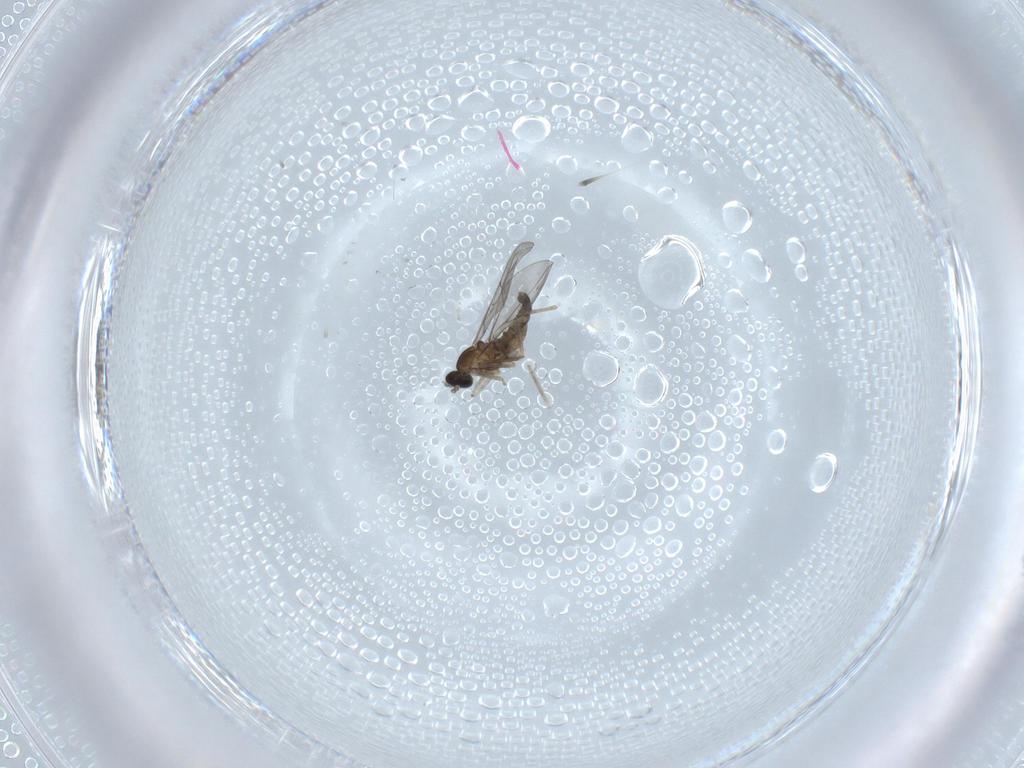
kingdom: Animalia
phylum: Arthropoda
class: Insecta
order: Diptera
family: Cecidomyiidae
